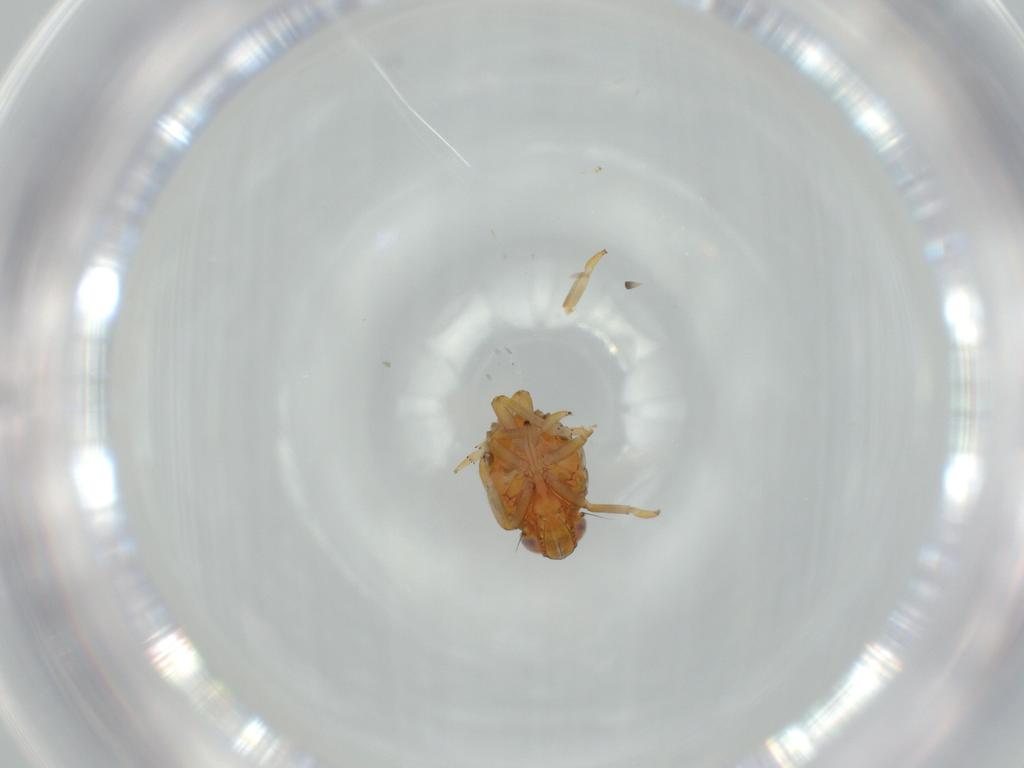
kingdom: Animalia
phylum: Arthropoda
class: Insecta
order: Hemiptera
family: Issidae
